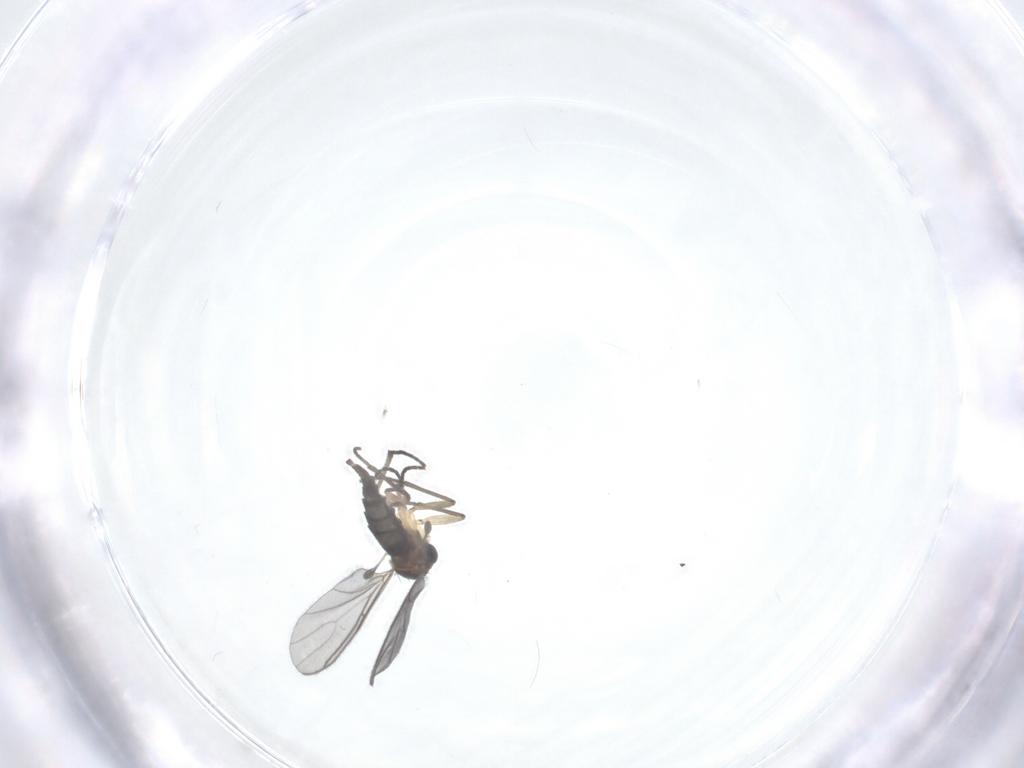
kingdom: Animalia
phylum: Arthropoda
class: Insecta
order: Diptera
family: Sciaridae
